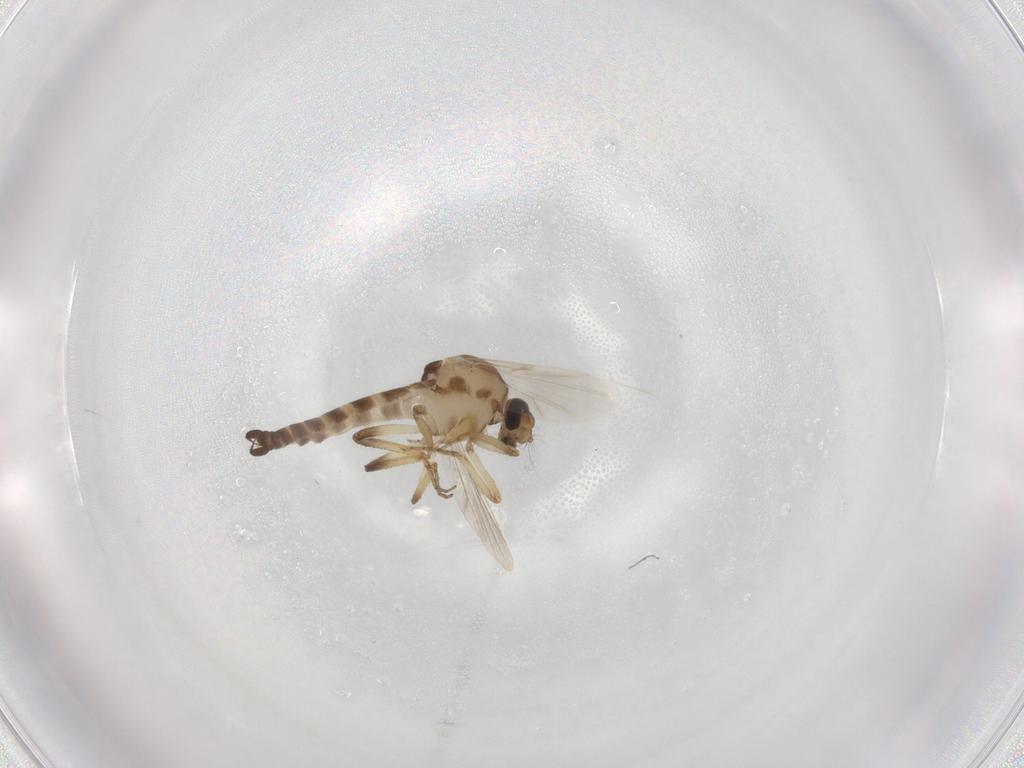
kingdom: Animalia
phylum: Arthropoda
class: Insecta
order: Diptera
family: Ceratopogonidae
